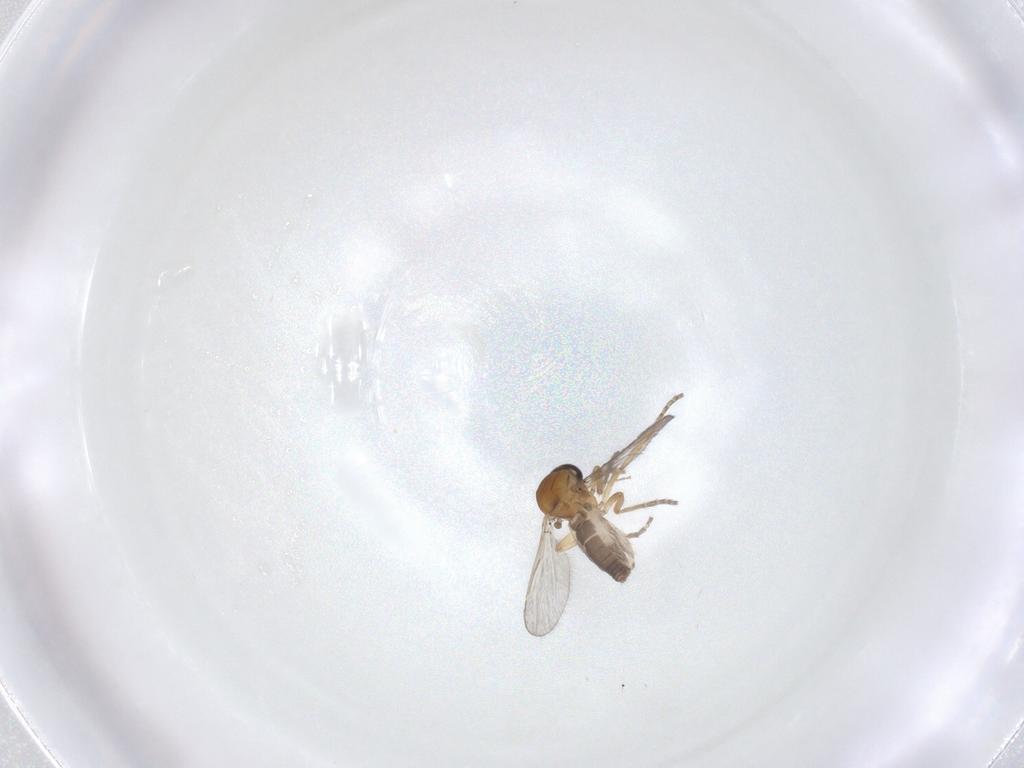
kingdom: Animalia
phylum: Arthropoda
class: Insecta
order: Diptera
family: Ceratopogonidae
